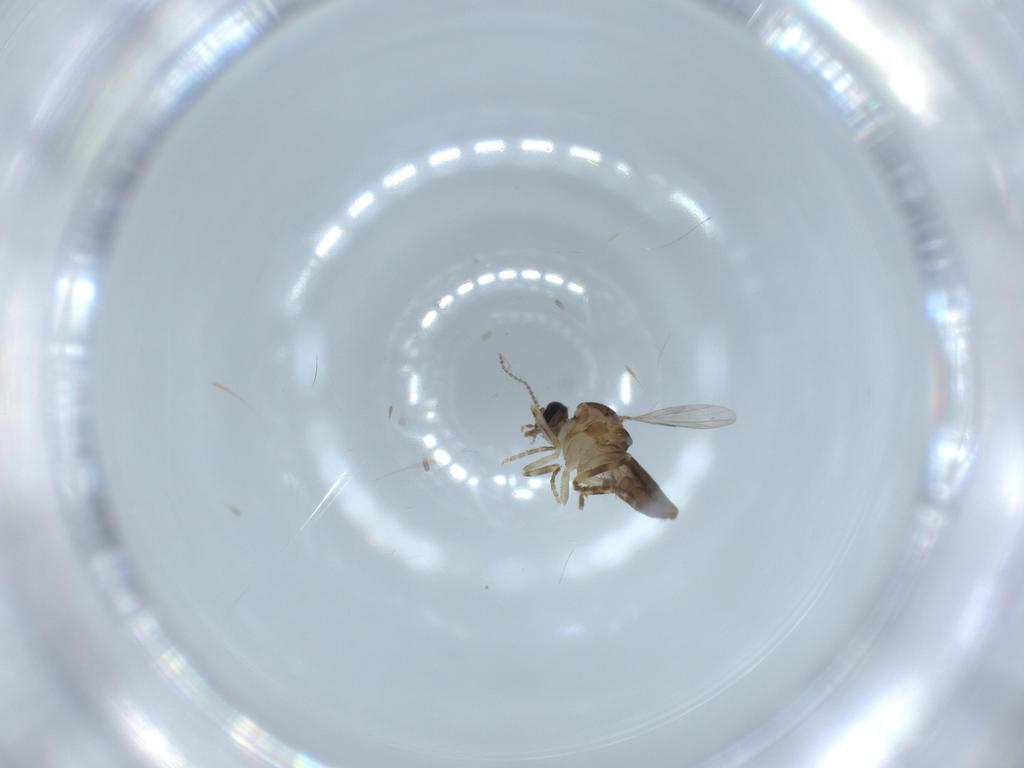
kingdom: Animalia
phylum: Arthropoda
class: Insecta
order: Diptera
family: Ceratopogonidae
